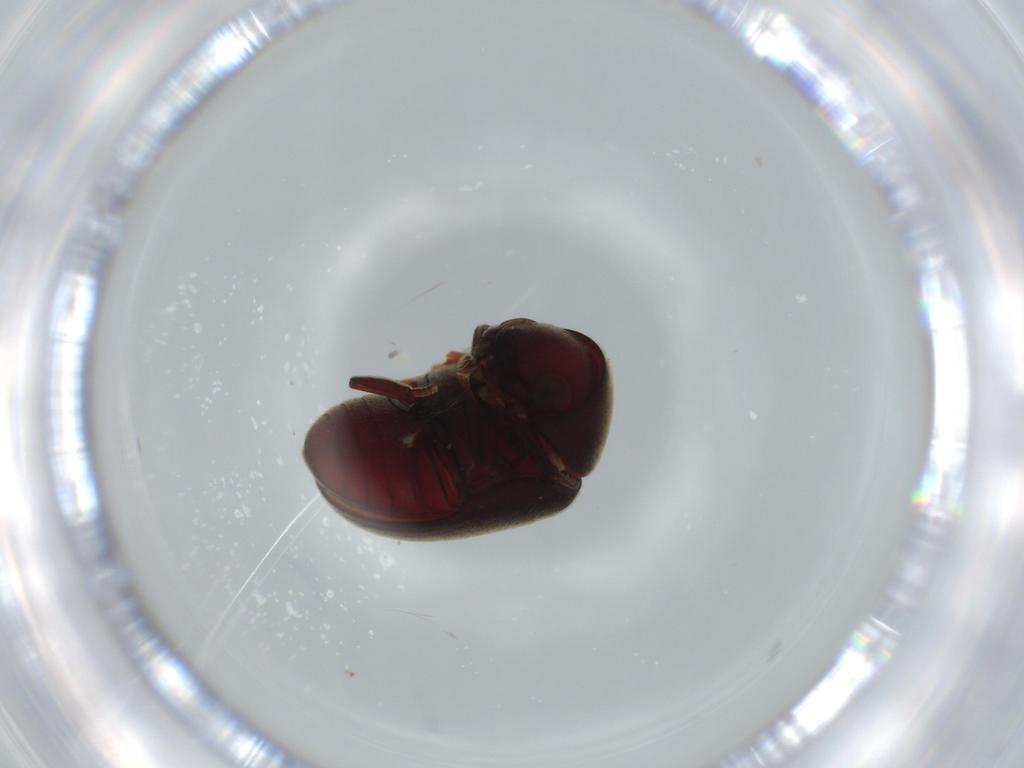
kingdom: Animalia
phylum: Arthropoda
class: Insecta
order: Coleoptera
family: Ptinidae
